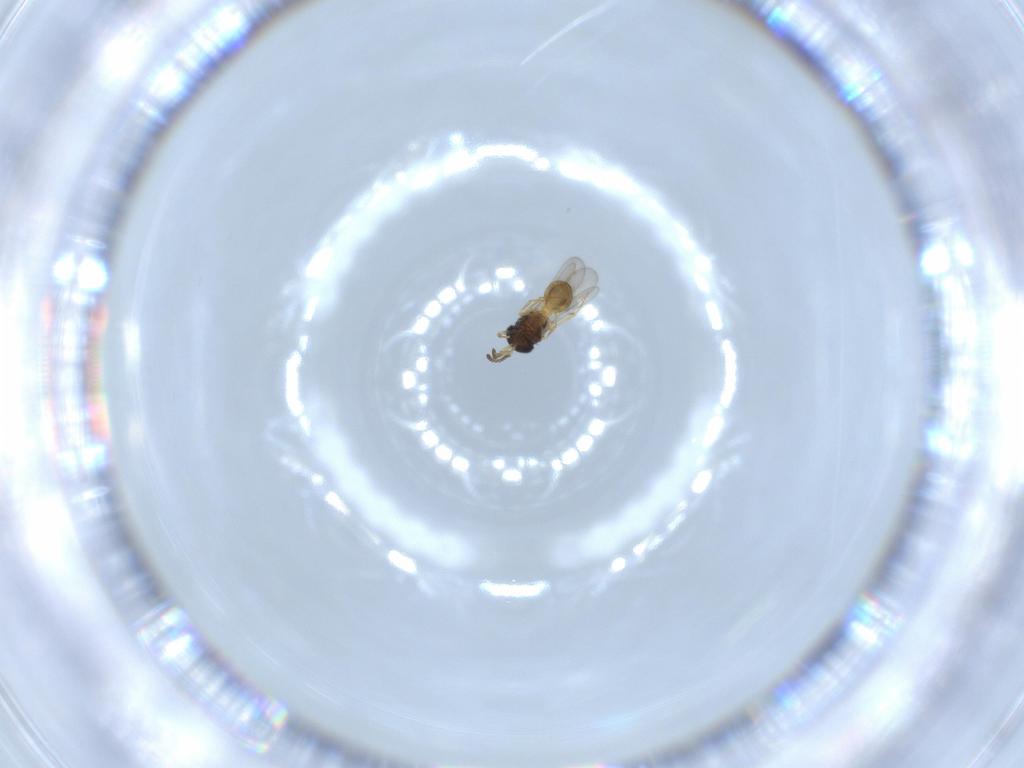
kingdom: Animalia
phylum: Arthropoda
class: Insecta
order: Hymenoptera
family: Scelionidae
